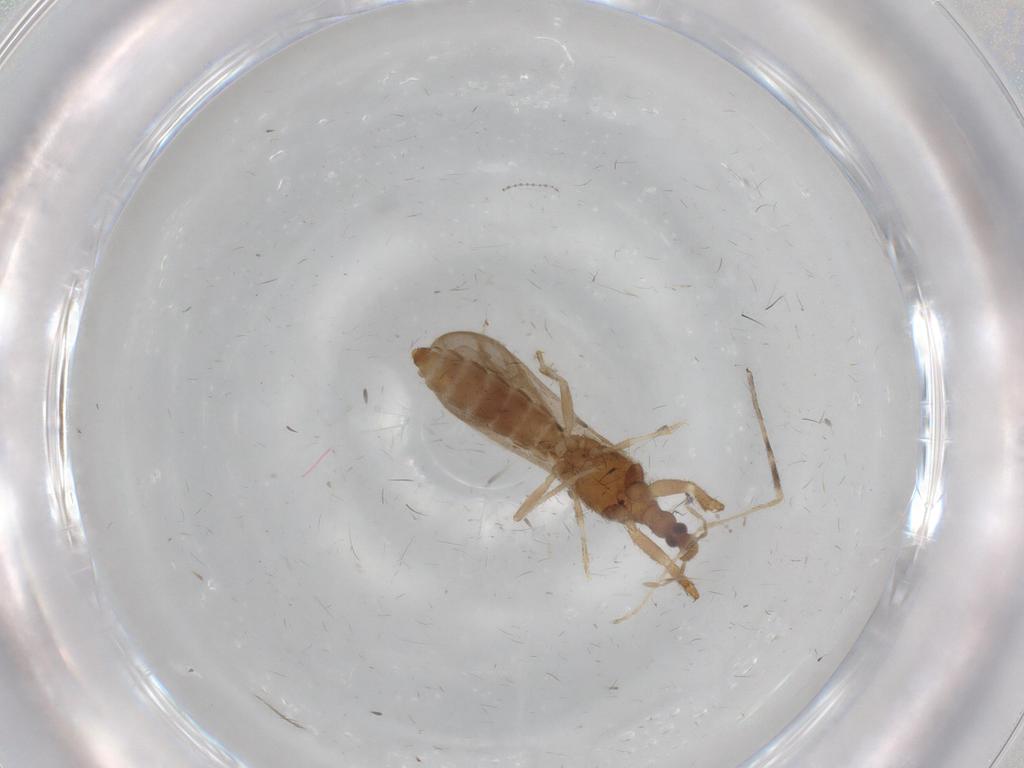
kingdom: Animalia
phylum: Arthropoda
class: Insecta
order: Hemiptera
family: Enicocephalidae
